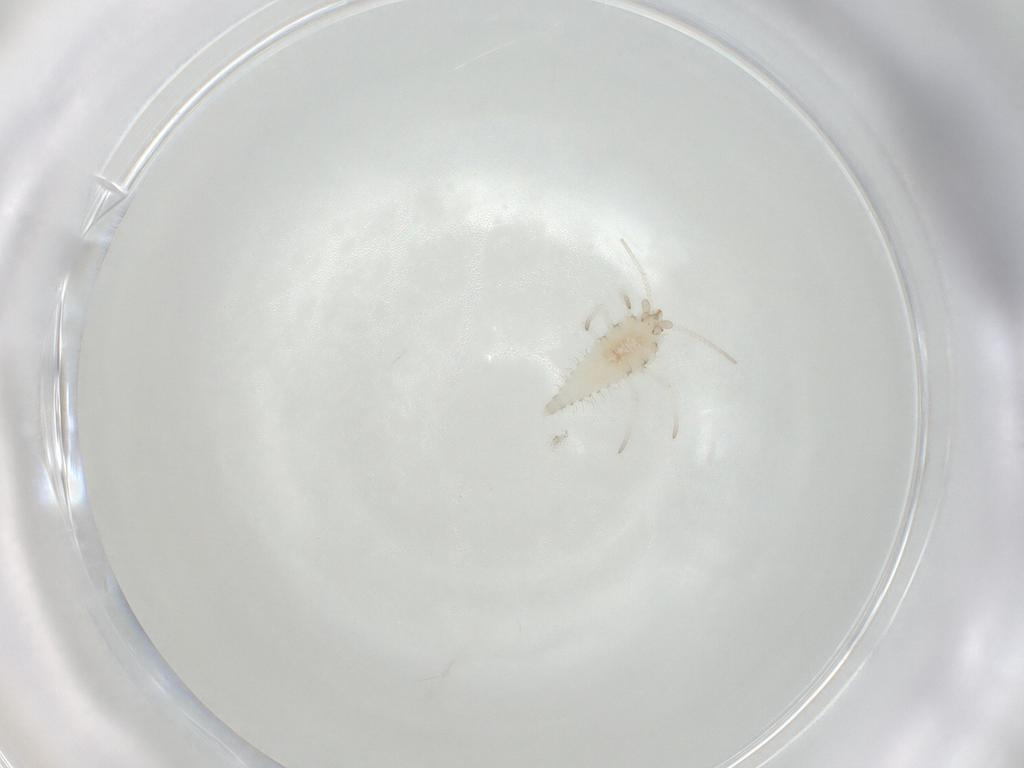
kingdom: Animalia
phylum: Arthropoda
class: Insecta
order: Neuroptera
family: Coniopterygidae
